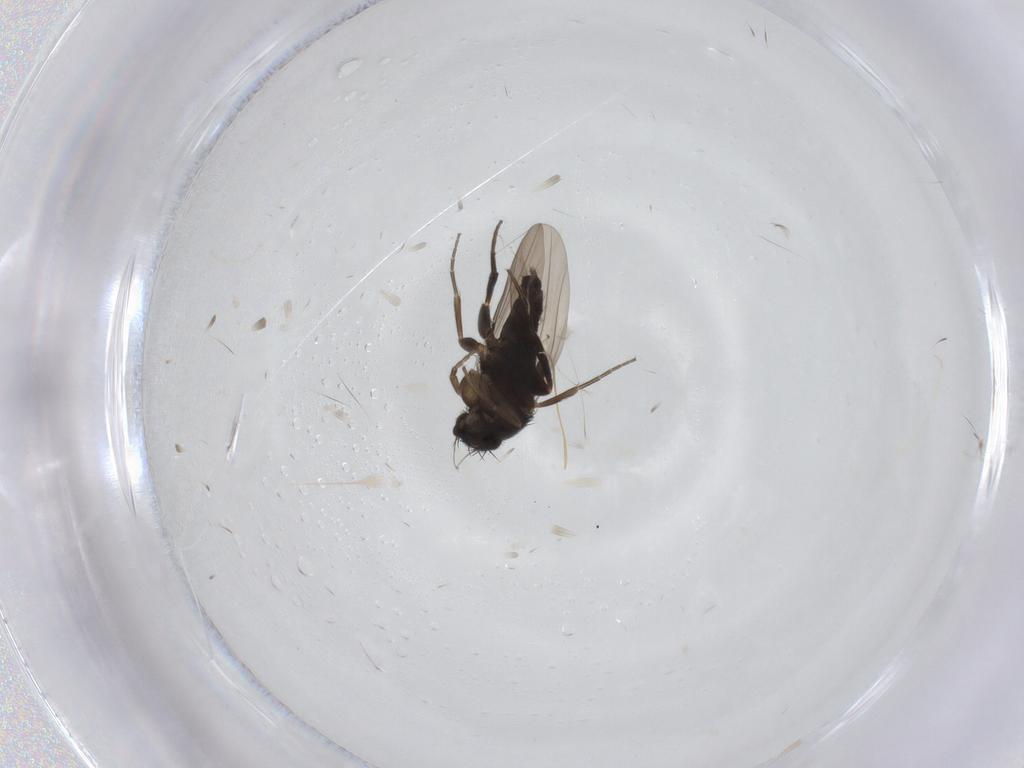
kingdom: Animalia
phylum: Arthropoda
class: Insecta
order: Diptera
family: Phoridae
